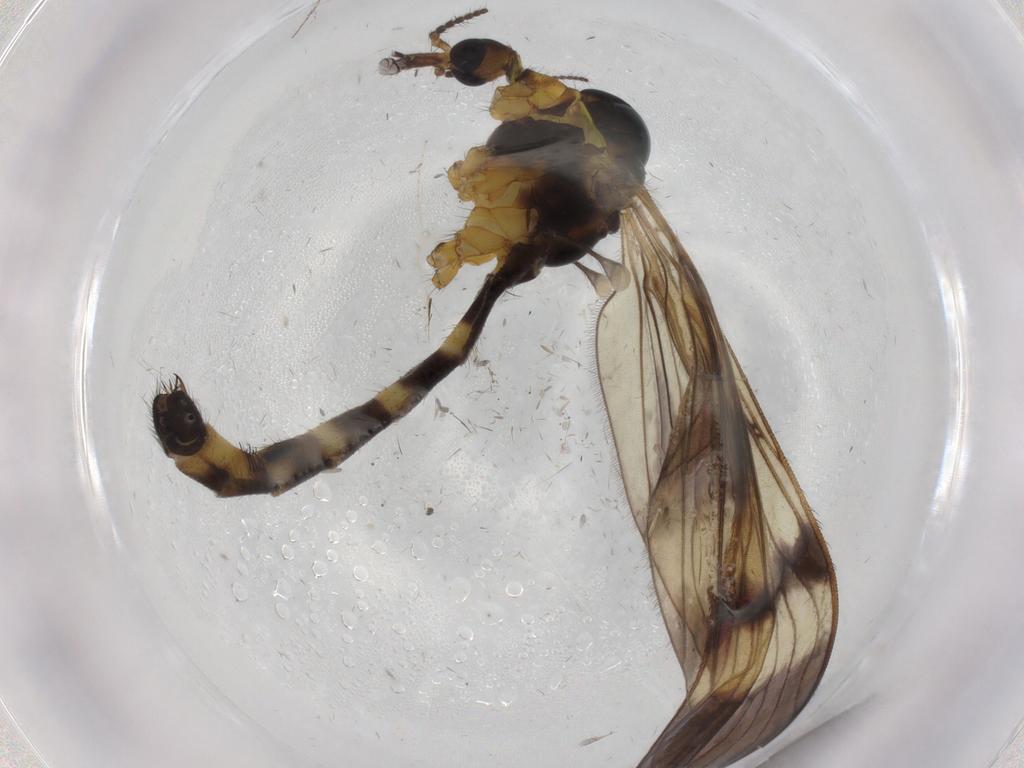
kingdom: Animalia
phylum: Arthropoda
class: Insecta
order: Diptera
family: Limoniidae
